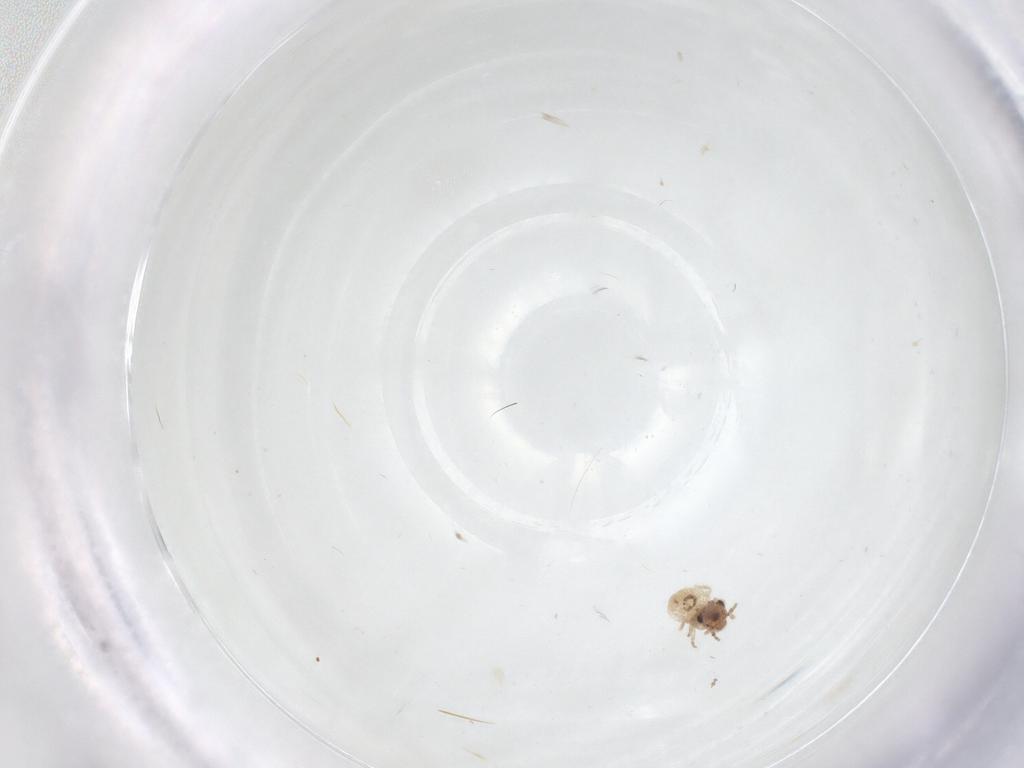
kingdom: Animalia
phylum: Arthropoda
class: Insecta
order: Psocodea
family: Lepidopsocidae
